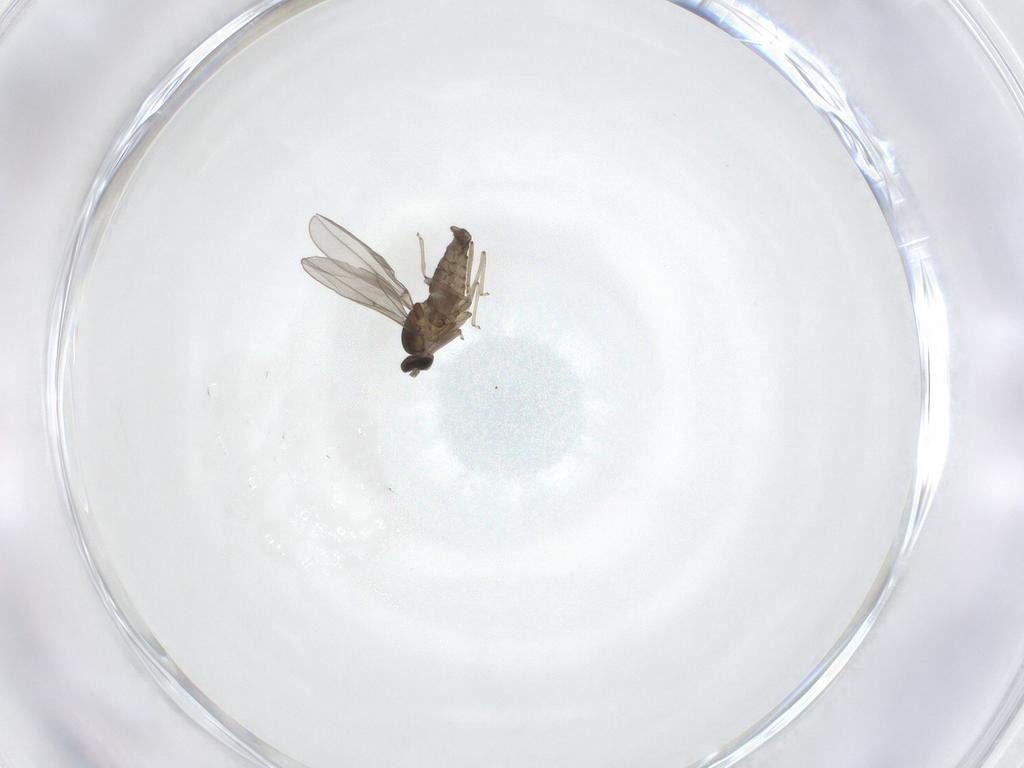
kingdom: Animalia
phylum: Arthropoda
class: Insecta
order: Diptera
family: Cecidomyiidae
